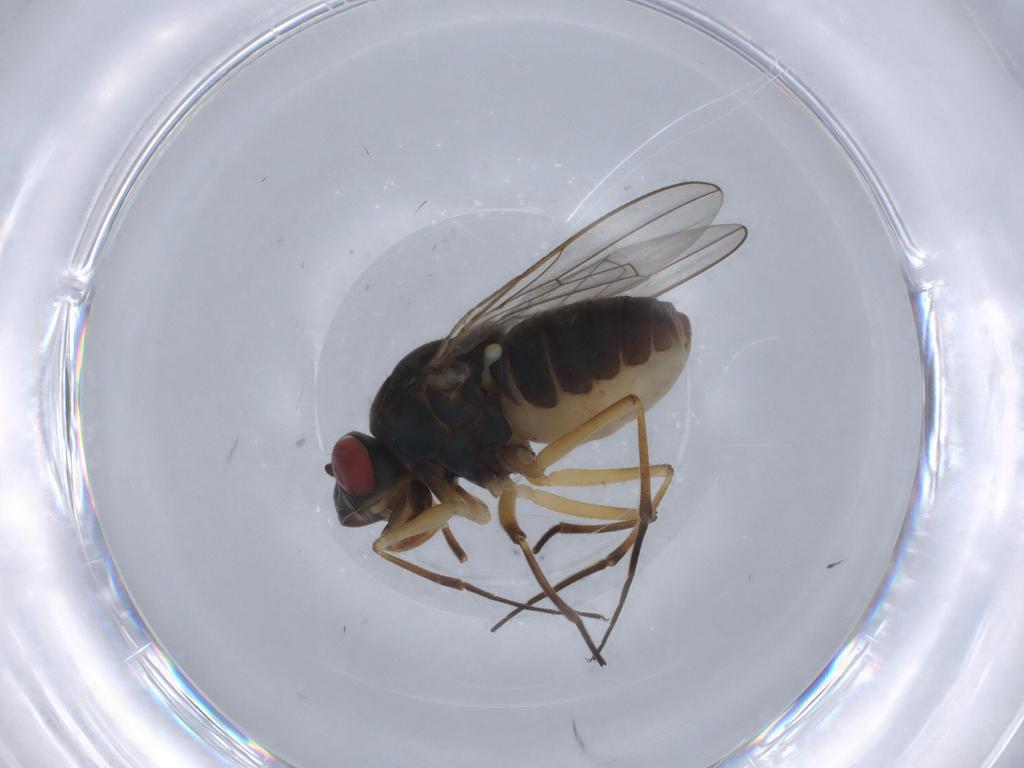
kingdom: Animalia
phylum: Arthropoda
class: Insecta
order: Diptera
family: Ephydridae
